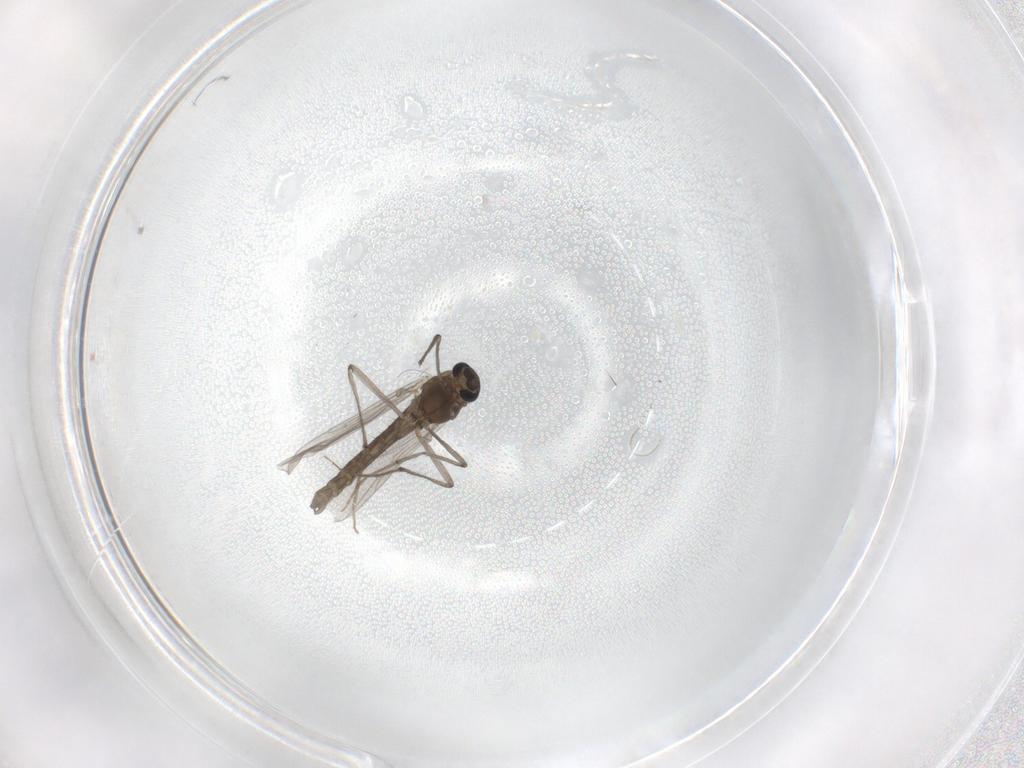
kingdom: Animalia
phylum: Arthropoda
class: Insecta
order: Diptera
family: Chironomidae
